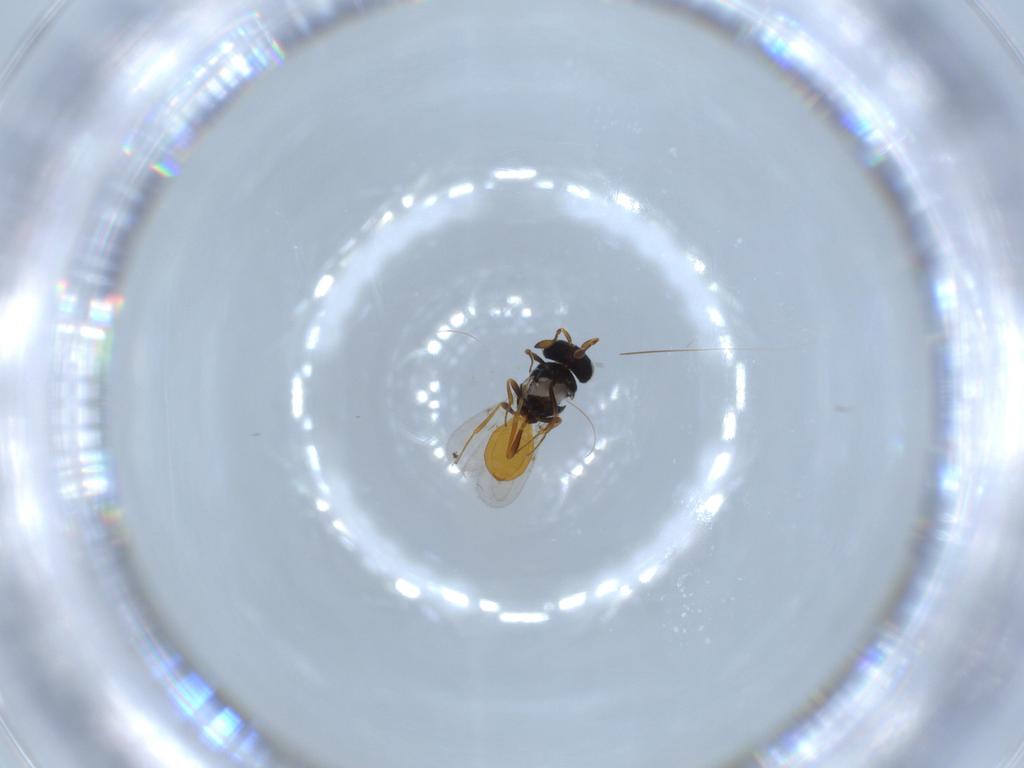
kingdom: Animalia
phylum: Arthropoda
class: Insecta
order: Hymenoptera
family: Scelionidae
